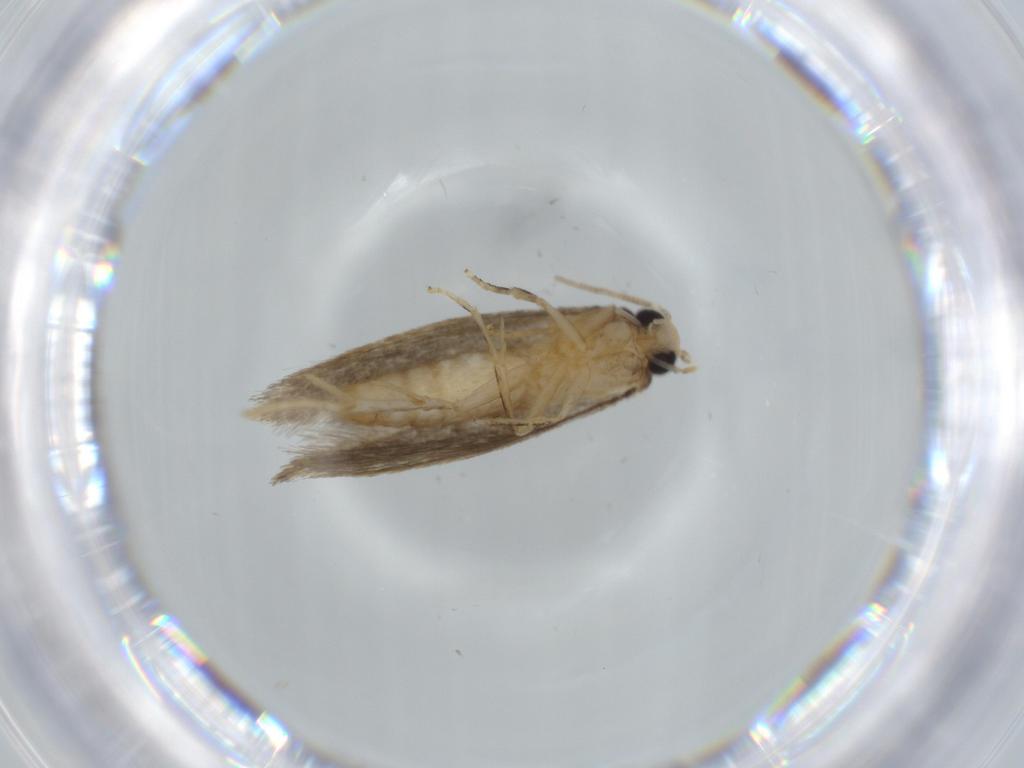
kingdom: Animalia
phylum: Arthropoda
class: Insecta
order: Lepidoptera
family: Tineidae
